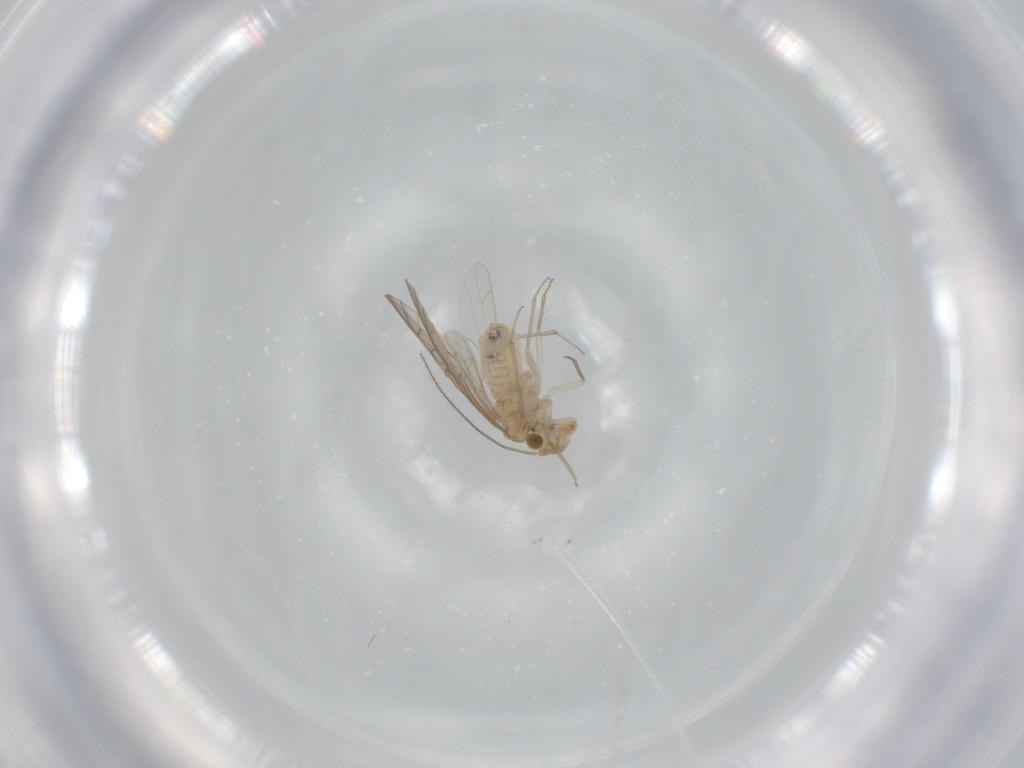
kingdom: Animalia
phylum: Arthropoda
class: Insecta
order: Psocodea
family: Lachesillidae
